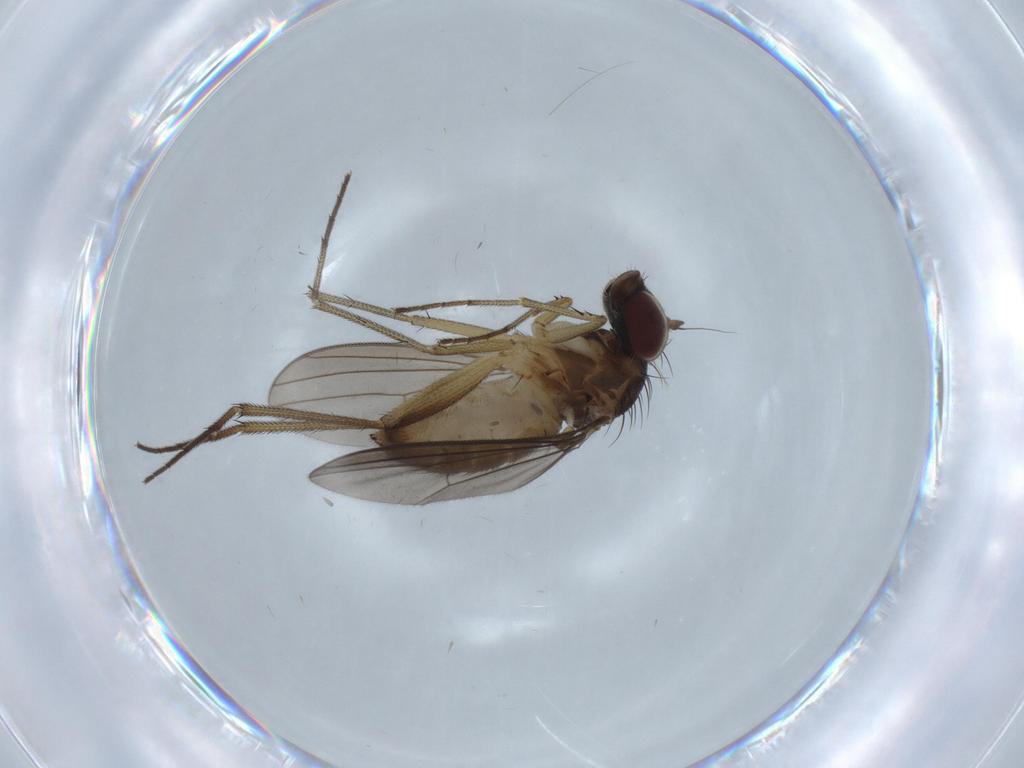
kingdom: Animalia
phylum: Arthropoda
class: Insecta
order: Diptera
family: Dolichopodidae
